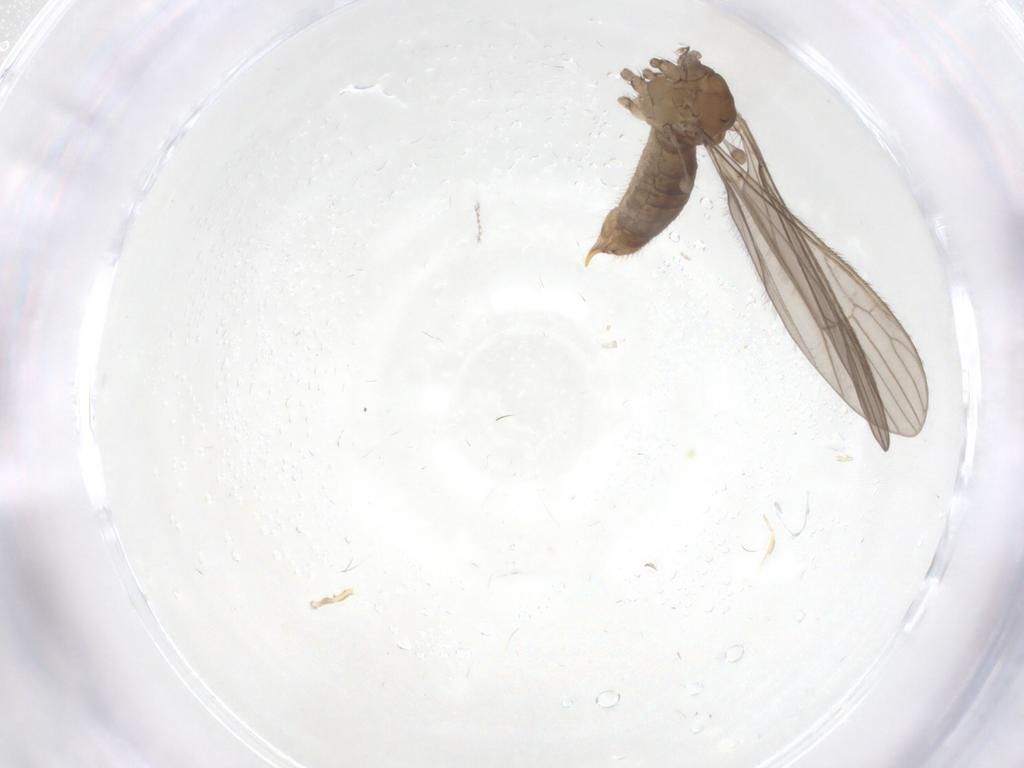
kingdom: Animalia
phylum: Arthropoda
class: Insecta
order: Diptera
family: Limoniidae
